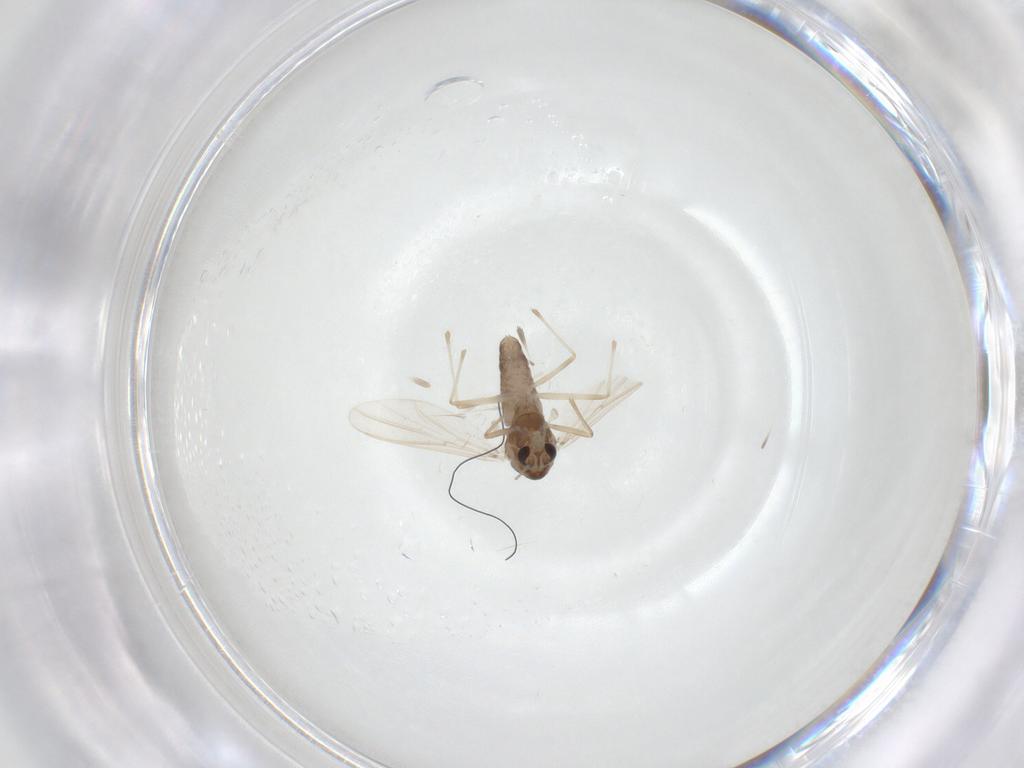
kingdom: Animalia
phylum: Arthropoda
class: Insecta
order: Diptera
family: Chironomidae
